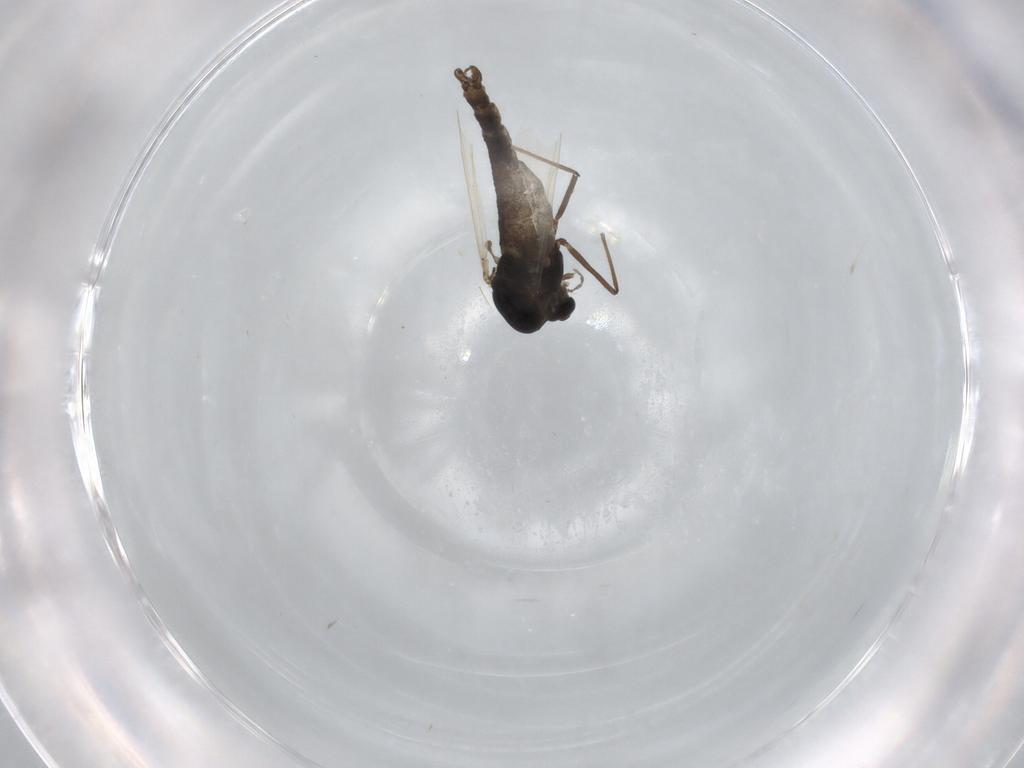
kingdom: Animalia
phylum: Arthropoda
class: Insecta
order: Diptera
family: Chironomidae
